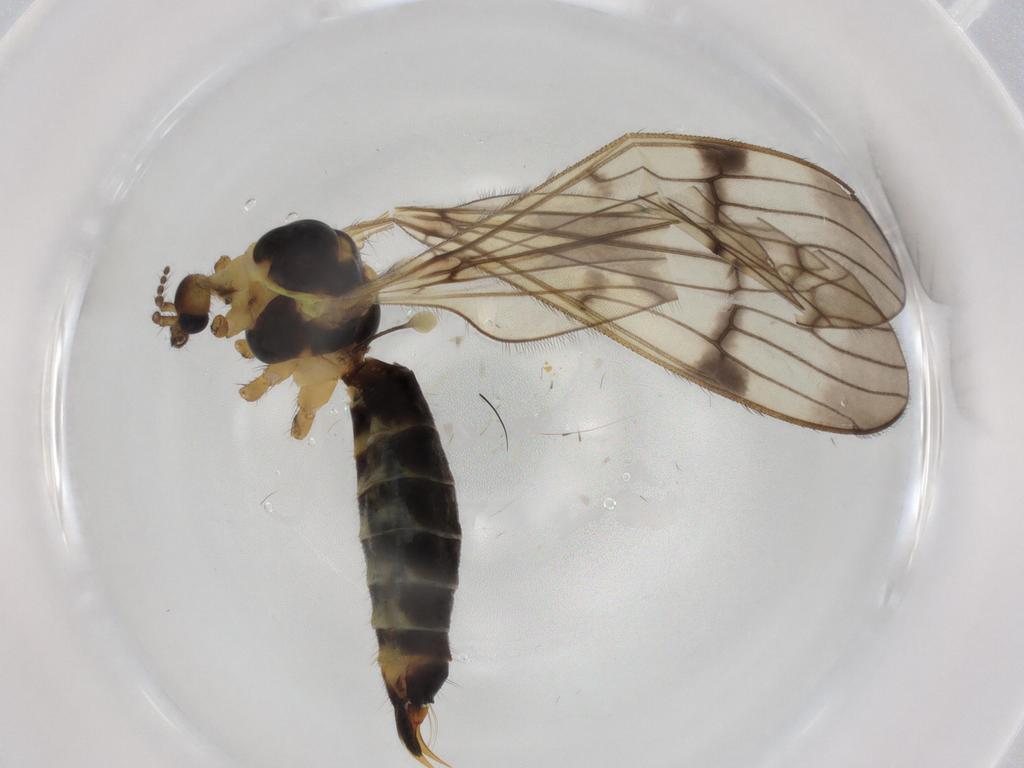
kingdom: Animalia
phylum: Arthropoda
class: Insecta
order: Diptera
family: Limoniidae
